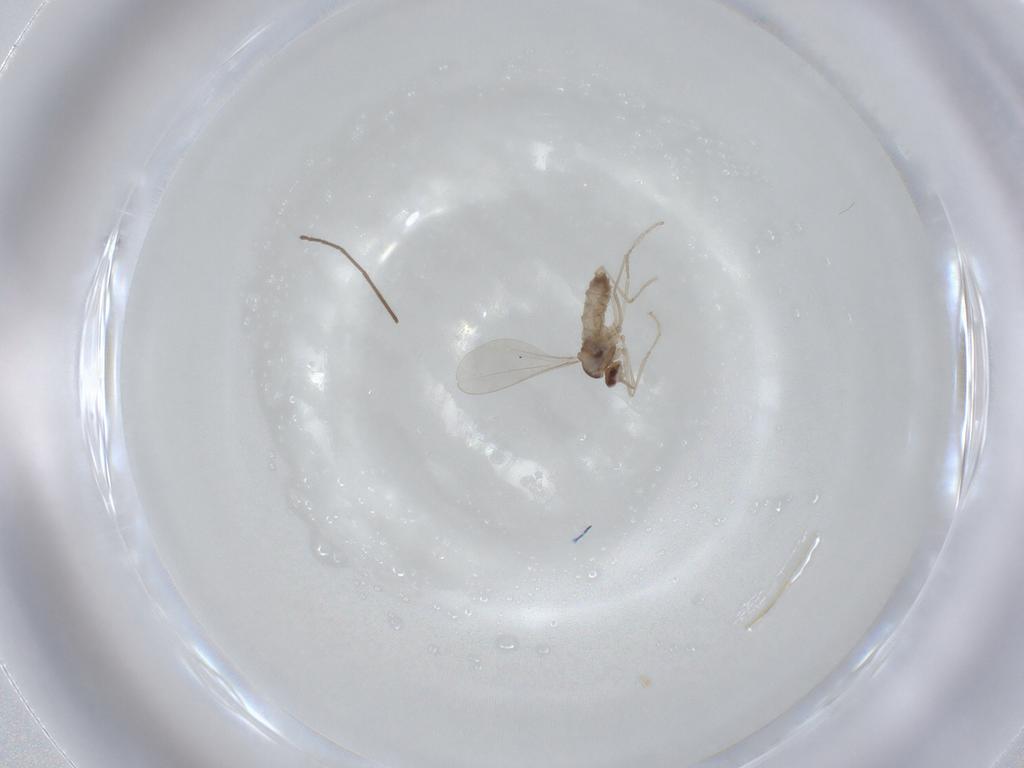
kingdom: Animalia
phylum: Arthropoda
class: Insecta
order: Diptera
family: Cecidomyiidae
